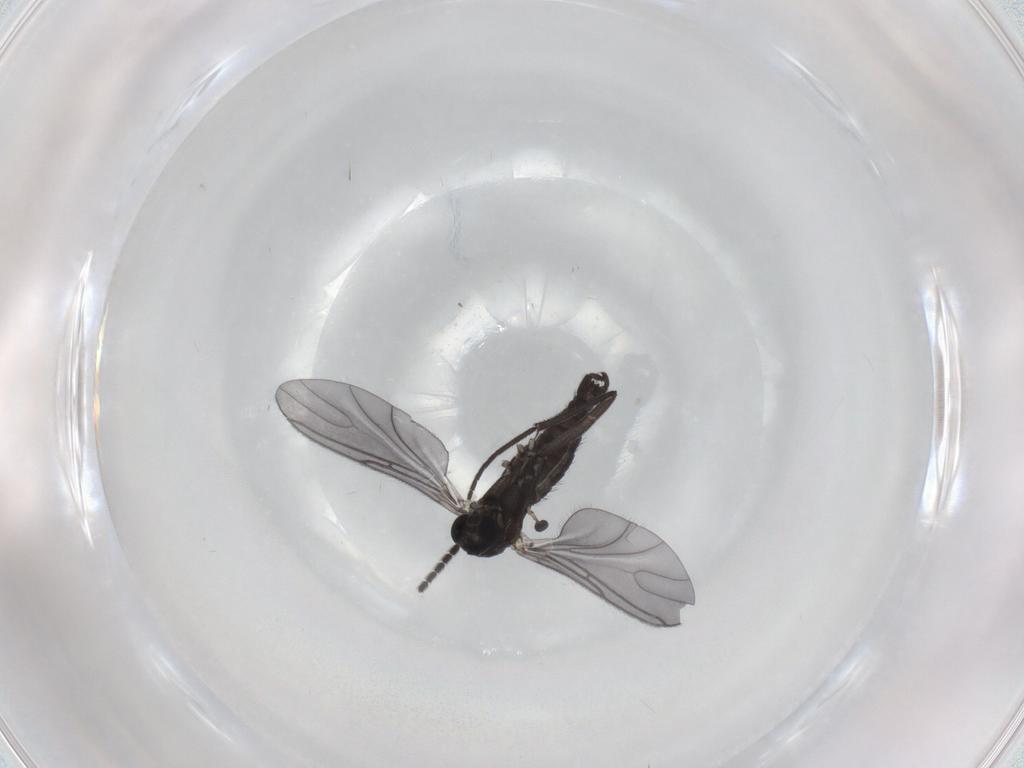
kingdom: Animalia
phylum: Arthropoda
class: Insecta
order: Diptera
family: Sciaridae
